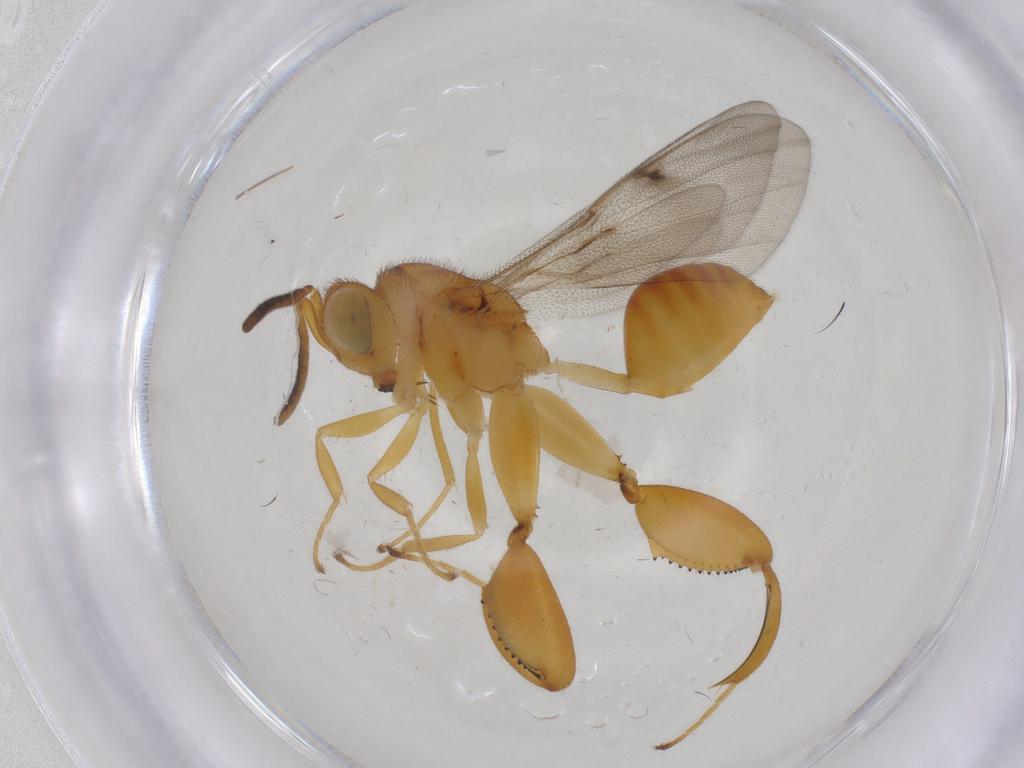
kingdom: Animalia
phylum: Arthropoda
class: Insecta
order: Hymenoptera
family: Chalcididae
